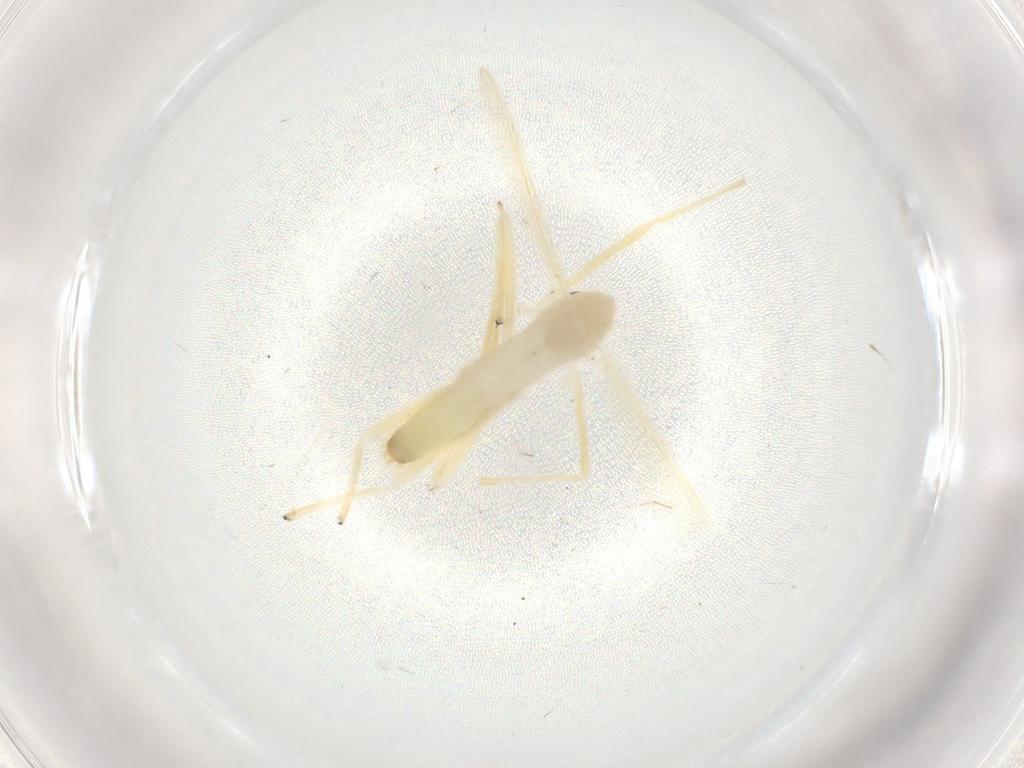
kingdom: Animalia
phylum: Arthropoda
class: Insecta
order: Diptera
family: Chironomidae
